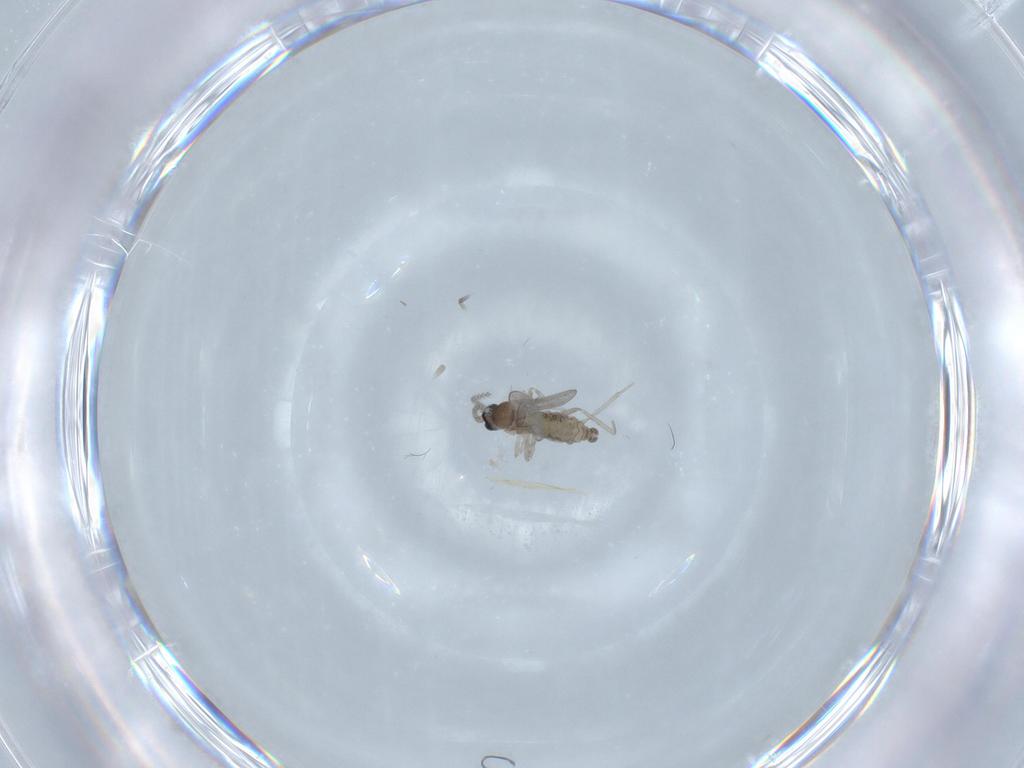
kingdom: Animalia
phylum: Arthropoda
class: Insecta
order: Diptera
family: Cecidomyiidae
